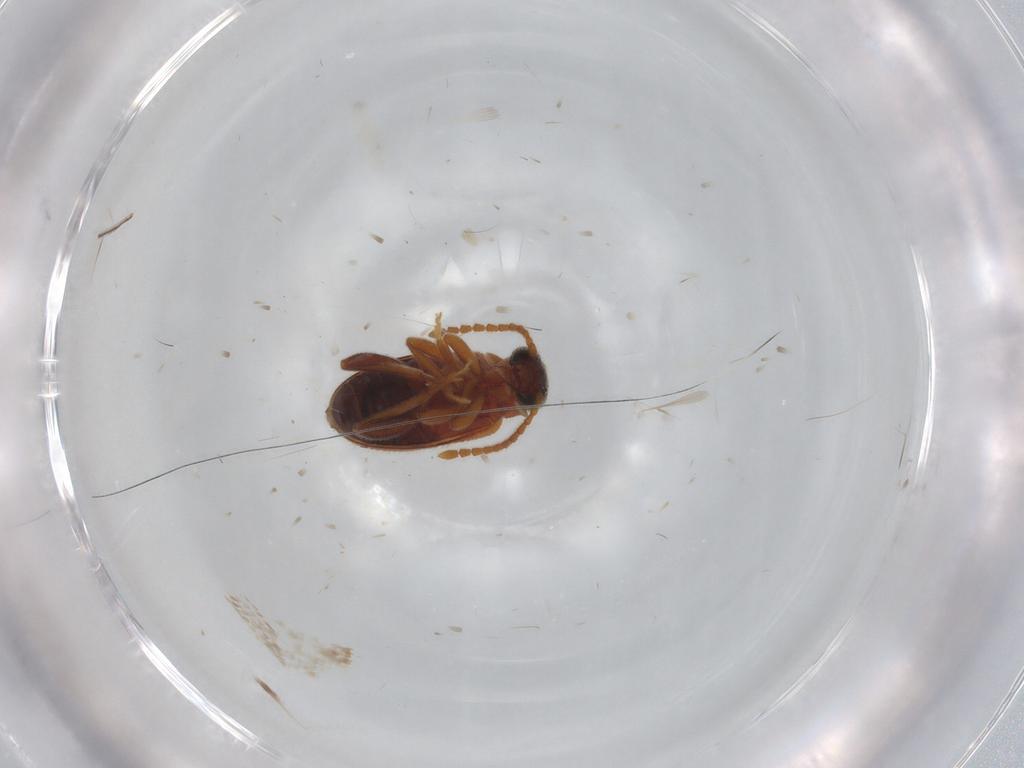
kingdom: Animalia
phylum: Arthropoda
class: Insecta
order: Coleoptera
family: Aderidae
